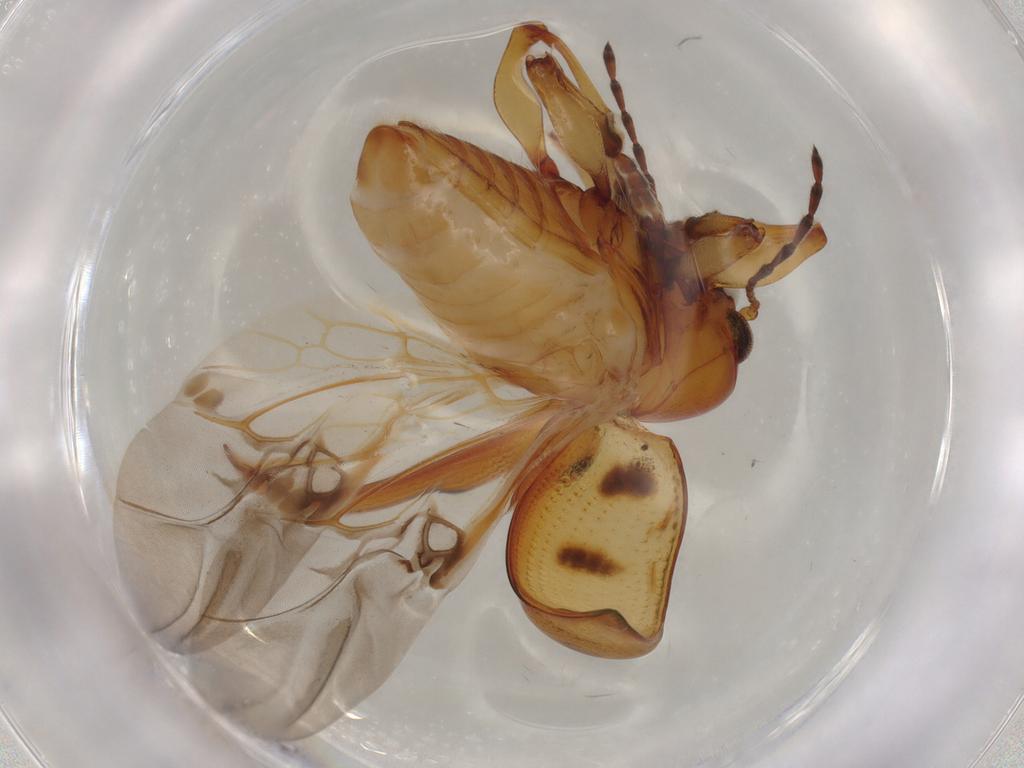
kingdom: Animalia
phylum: Arthropoda
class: Insecta
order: Coleoptera
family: Chrysomelidae
